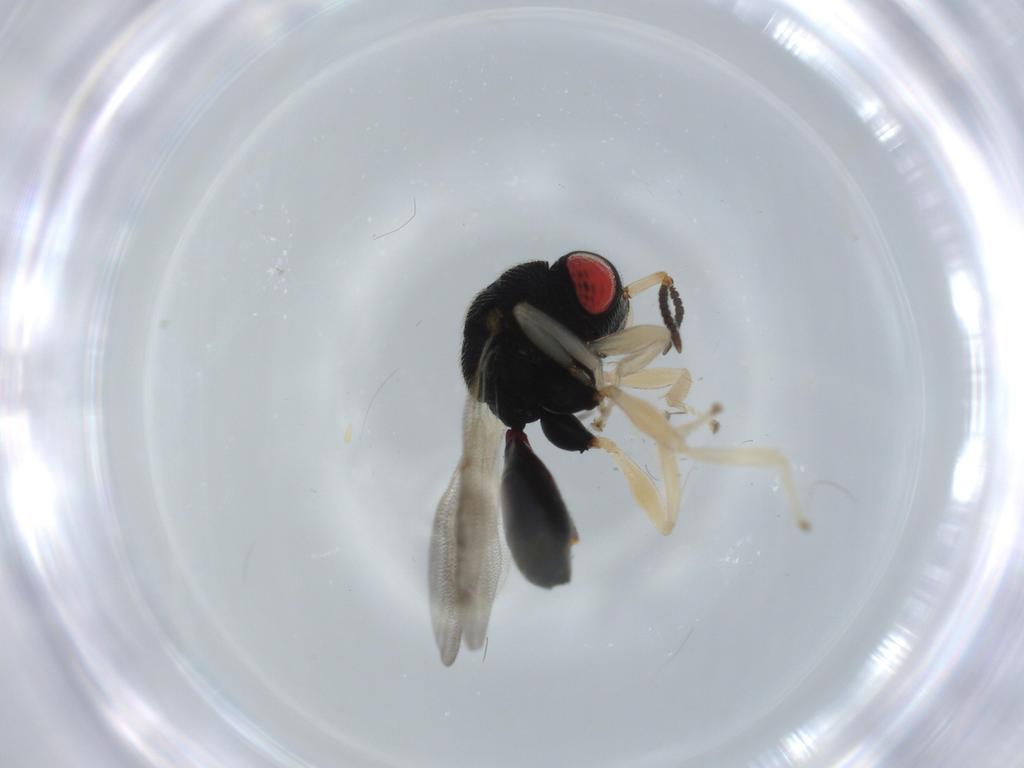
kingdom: Animalia
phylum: Arthropoda
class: Insecta
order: Hymenoptera
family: Bethylidae
